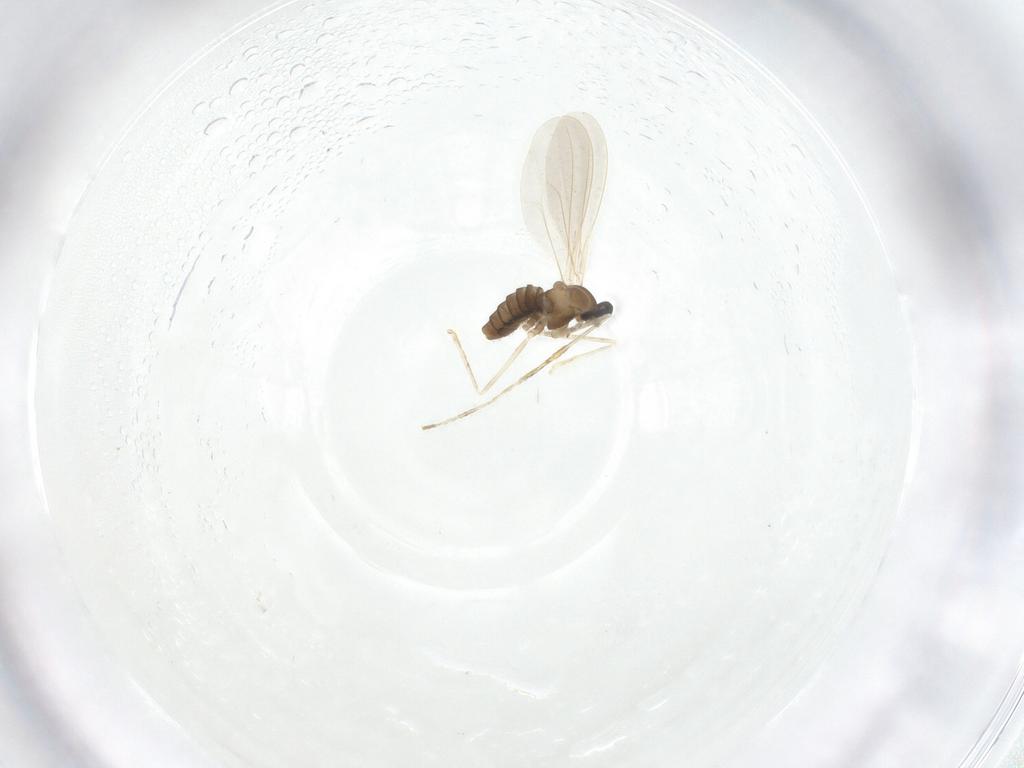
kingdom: Animalia
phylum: Arthropoda
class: Insecta
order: Diptera
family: Cecidomyiidae
